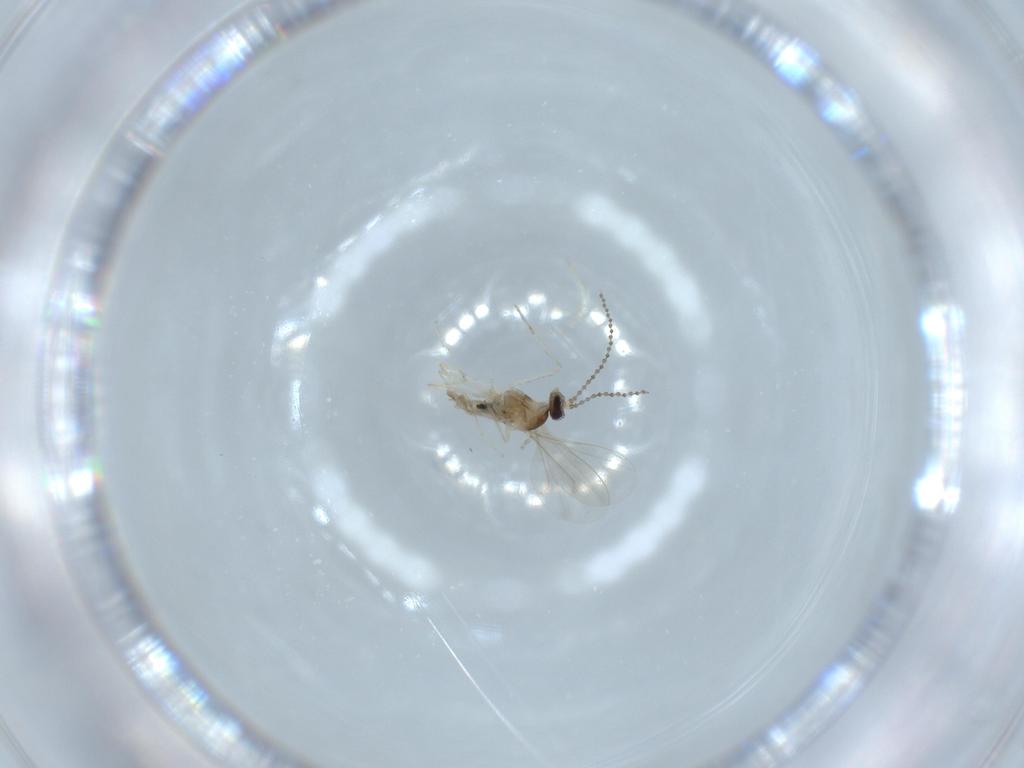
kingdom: Animalia
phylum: Arthropoda
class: Insecta
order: Diptera
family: Cecidomyiidae
